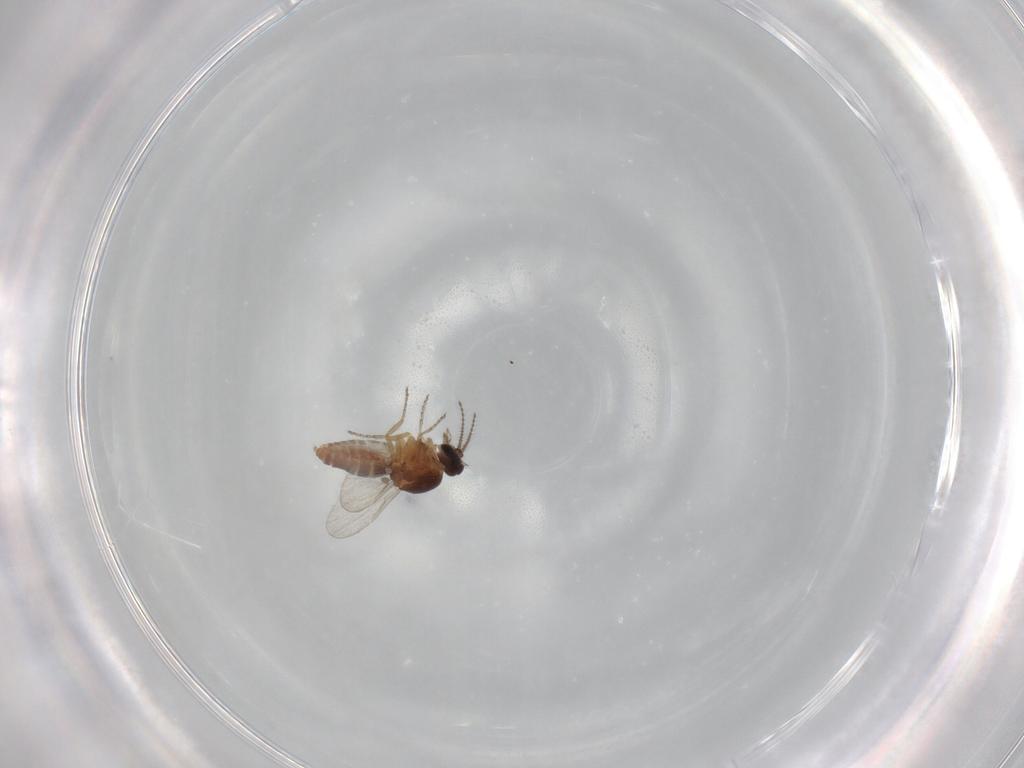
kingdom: Animalia
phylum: Arthropoda
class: Insecta
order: Diptera
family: Ceratopogonidae
